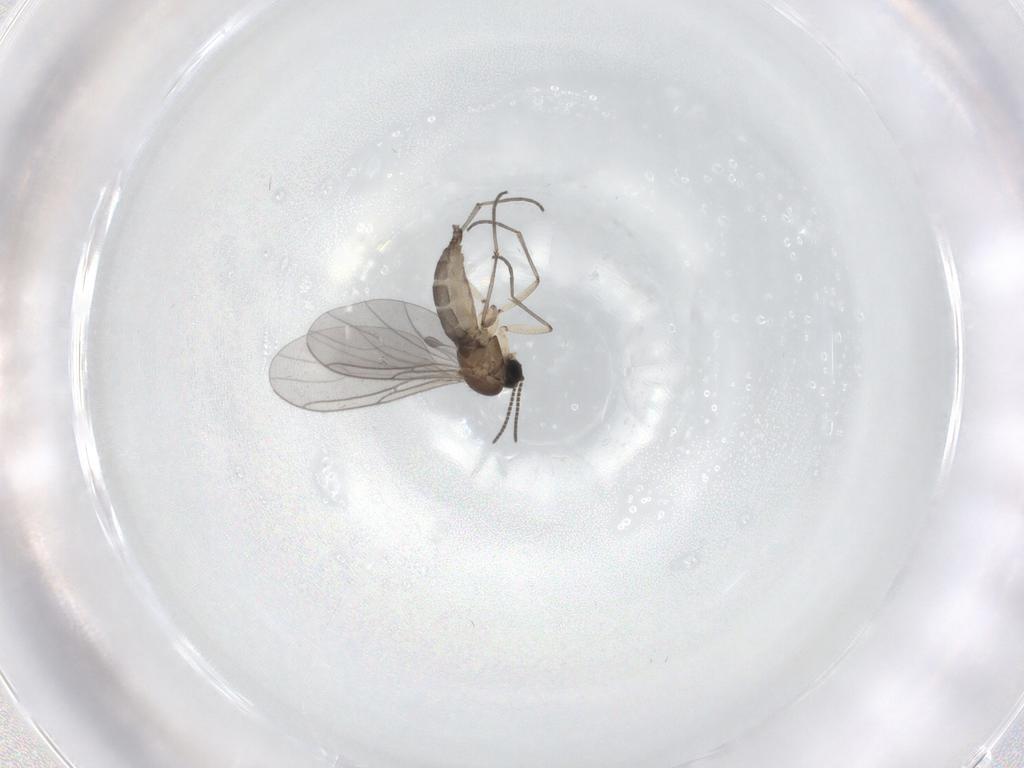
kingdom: Animalia
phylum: Arthropoda
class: Insecta
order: Diptera
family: Sciaridae
